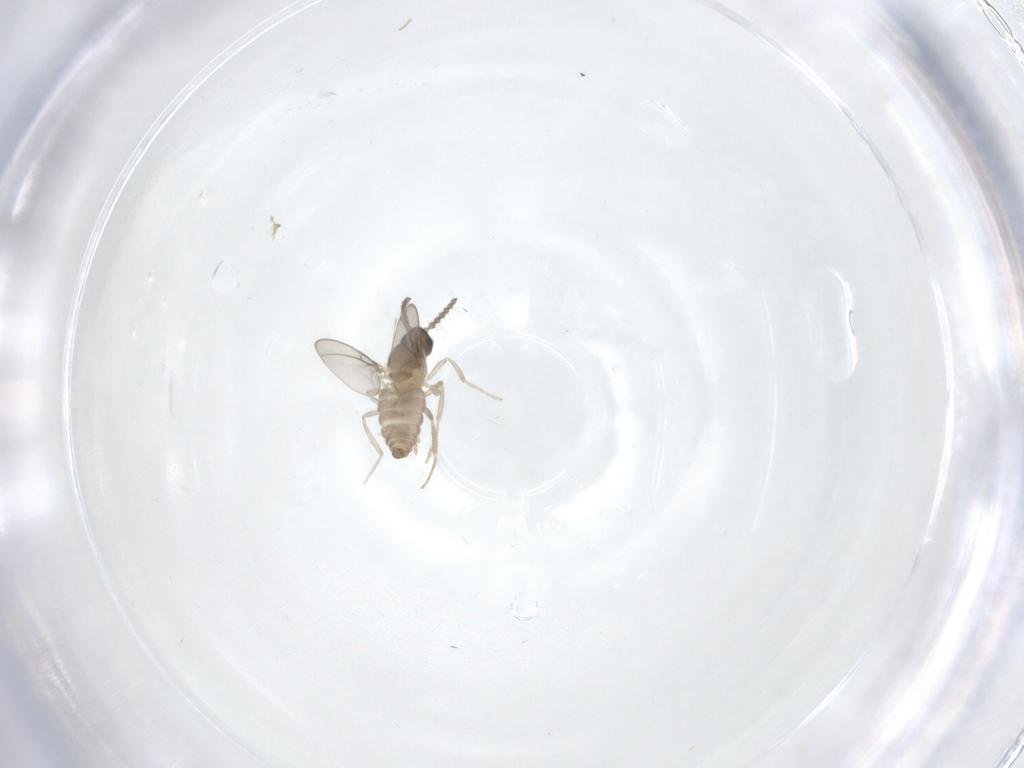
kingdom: Animalia
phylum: Arthropoda
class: Insecta
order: Diptera
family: Cecidomyiidae
